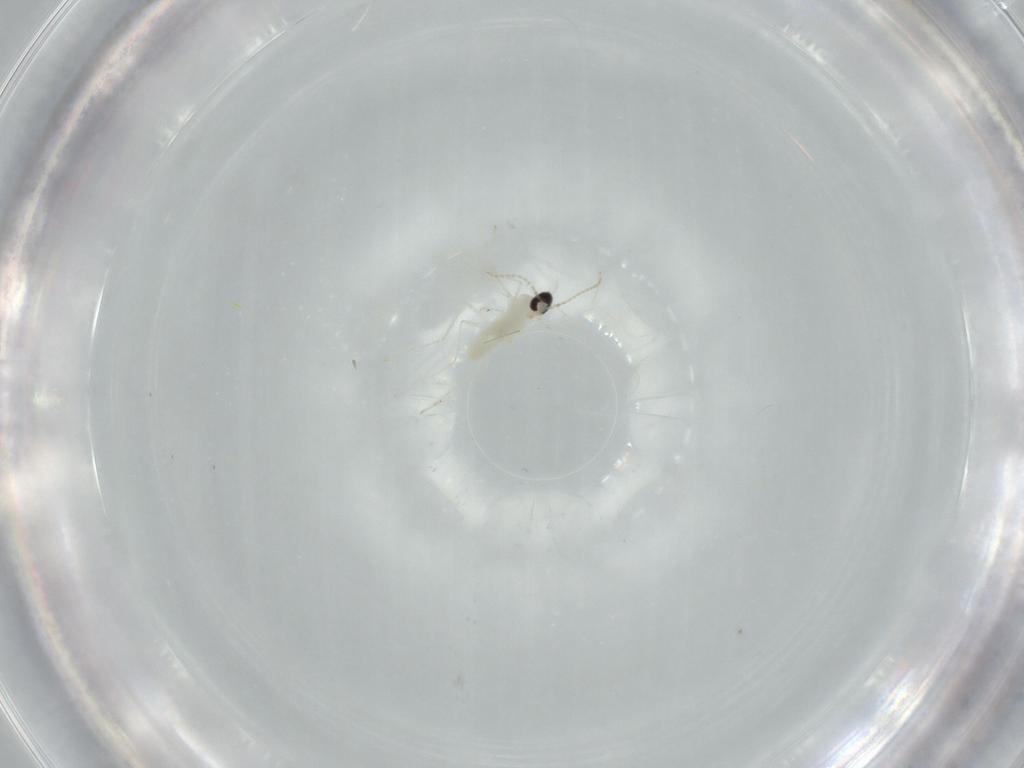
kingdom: Animalia
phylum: Arthropoda
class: Insecta
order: Diptera
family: Cecidomyiidae
